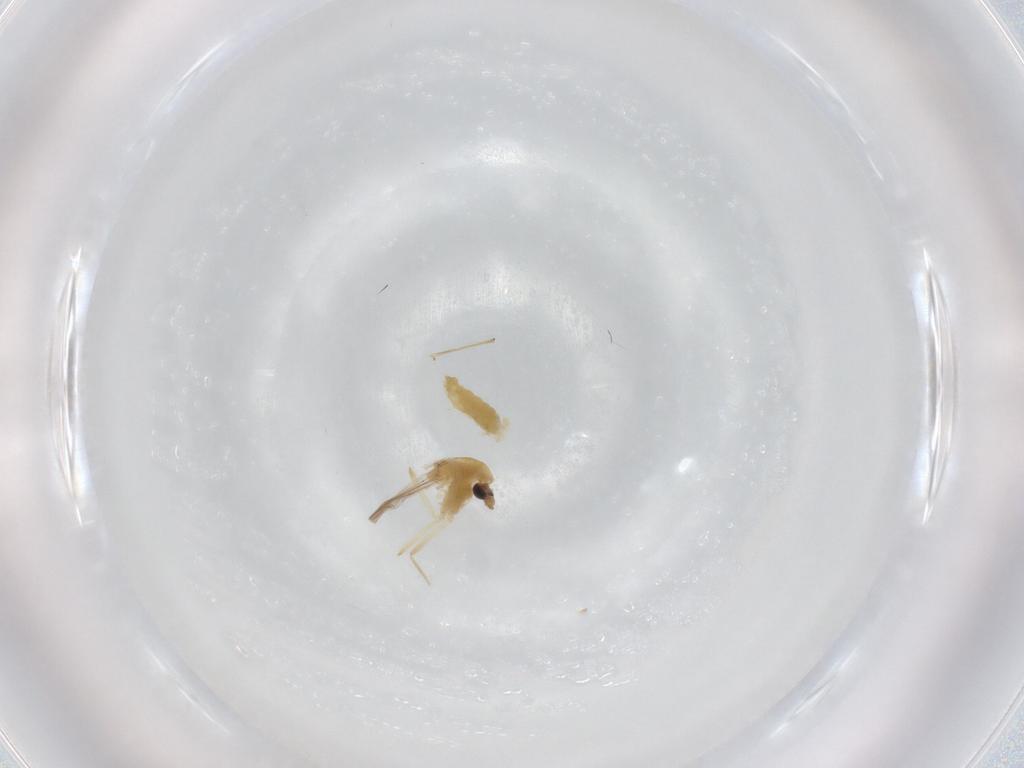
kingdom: Animalia
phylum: Arthropoda
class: Insecta
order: Diptera
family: Chironomidae
